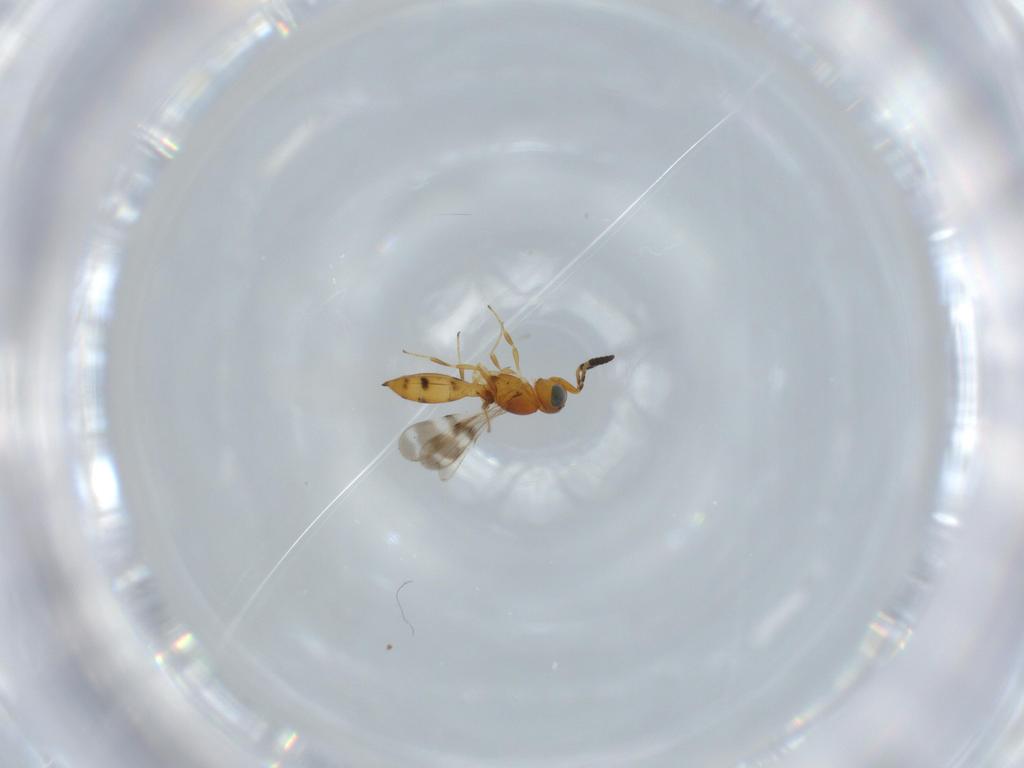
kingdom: Animalia
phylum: Arthropoda
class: Insecta
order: Hymenoptera
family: Scelionidae
